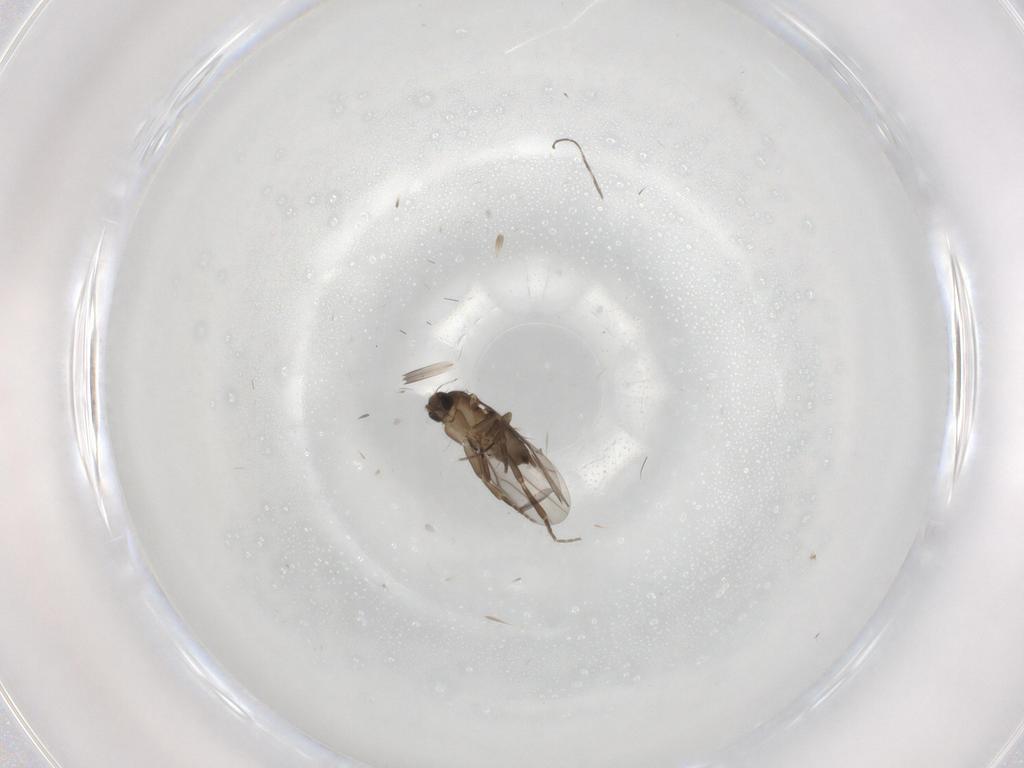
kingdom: Animalia
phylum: Arthropoda
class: Insecta
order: Diptera
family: Phoridae
